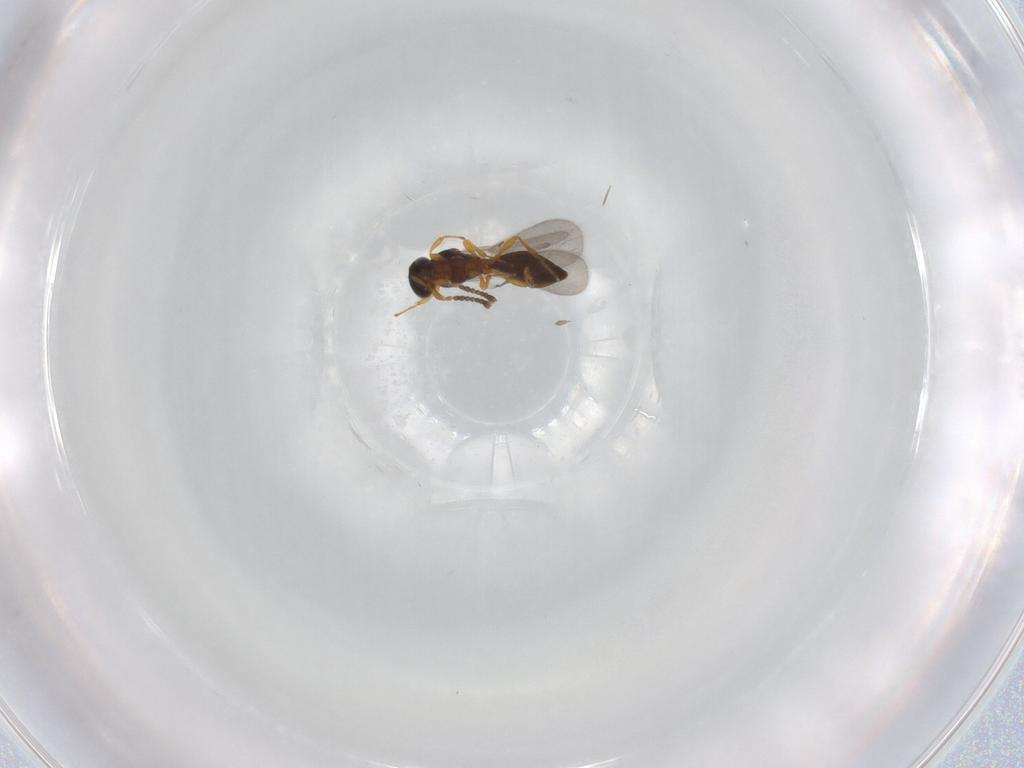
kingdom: Animalia
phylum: Arthropoda
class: Insecta
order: Hymenoptera
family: Platygastridae
